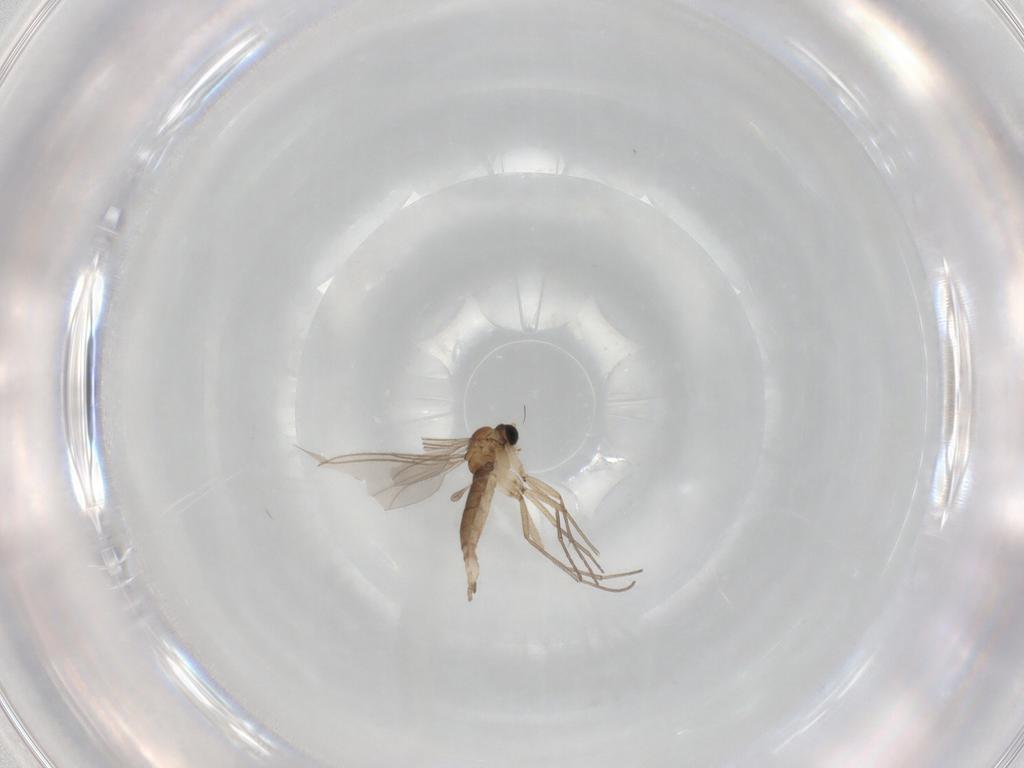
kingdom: Animalia
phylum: Arthropoda
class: Insecta
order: Diptera
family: Sciaridae
